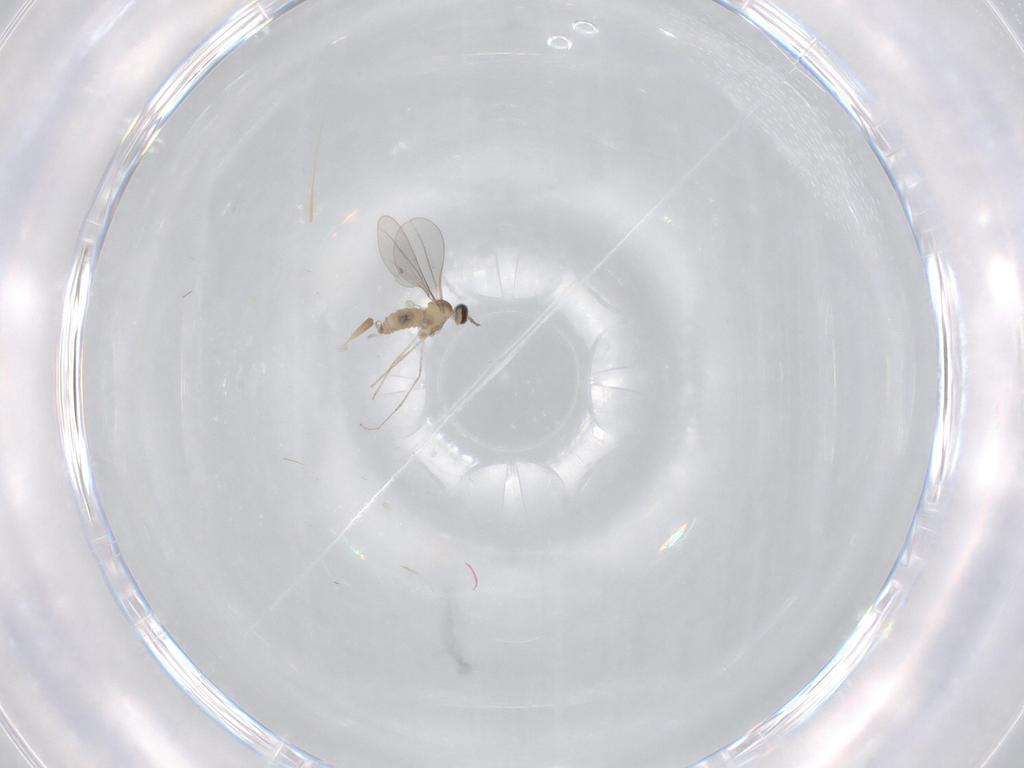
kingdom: Animalia
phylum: Arthropoda
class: Insecta
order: Diptera
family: Cecidomyiidae
